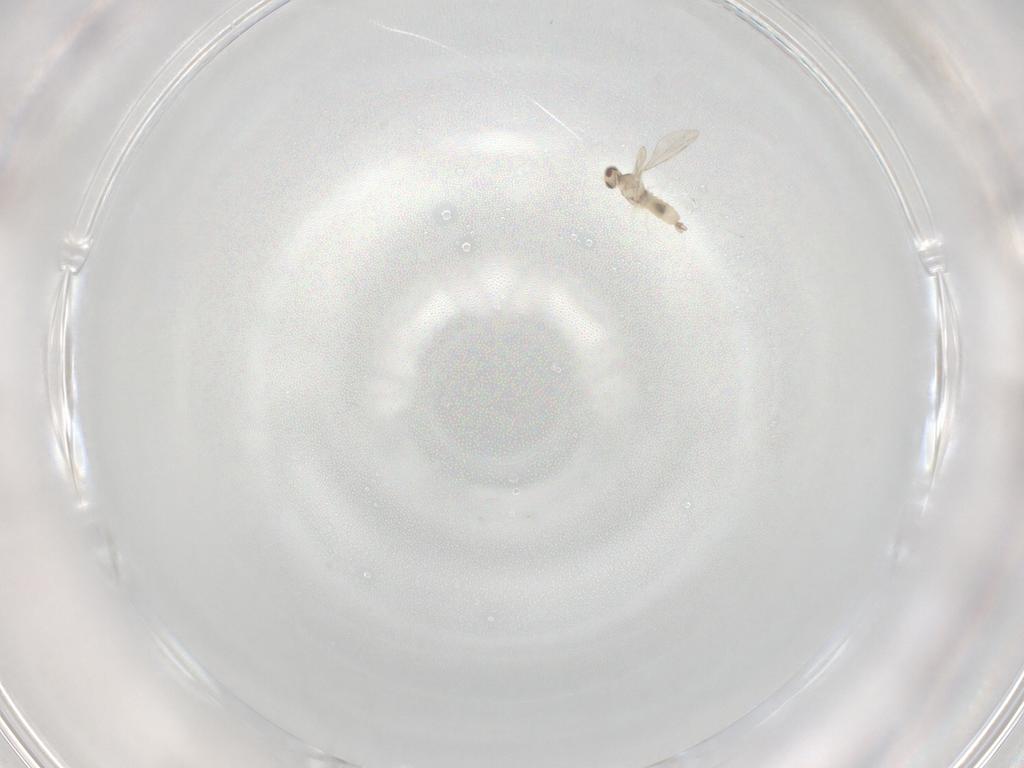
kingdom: Animalia
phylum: Arthropoda
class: Insecta
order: Diptera
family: Cecidomyiidae
